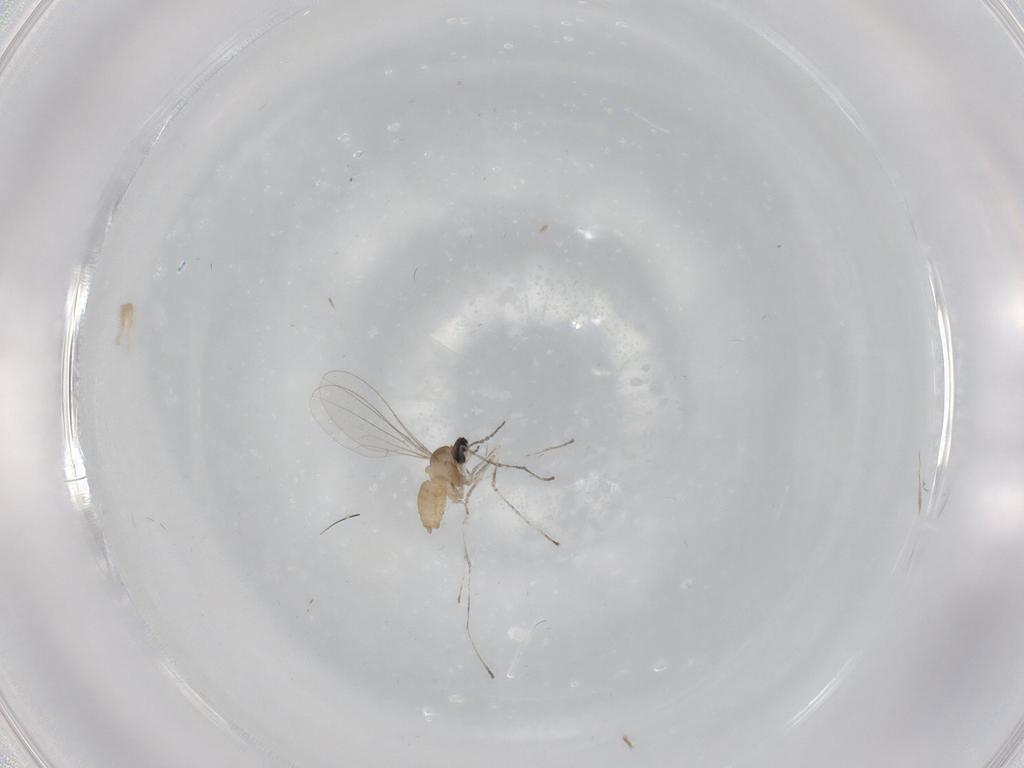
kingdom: Animalia
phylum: Arthropoda
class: Insecta
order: Diptera
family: Cecidomyiidae
